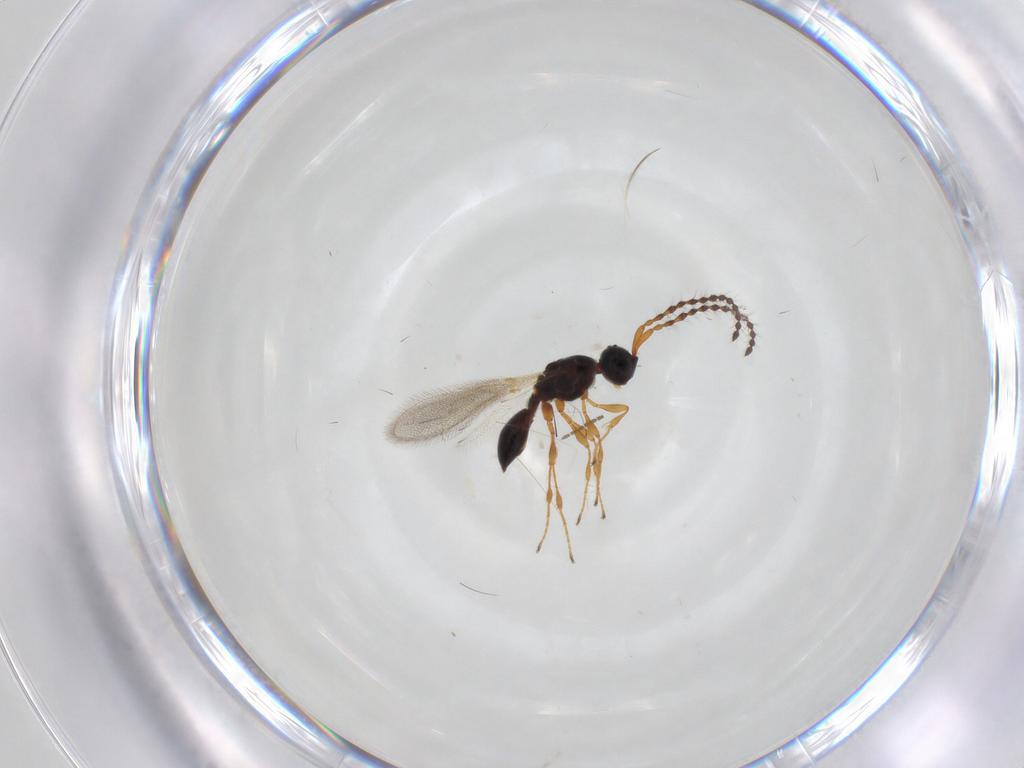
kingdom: Animalia
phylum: Arthropoda
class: Insecta
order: Hymenoptera
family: Diapriidae
